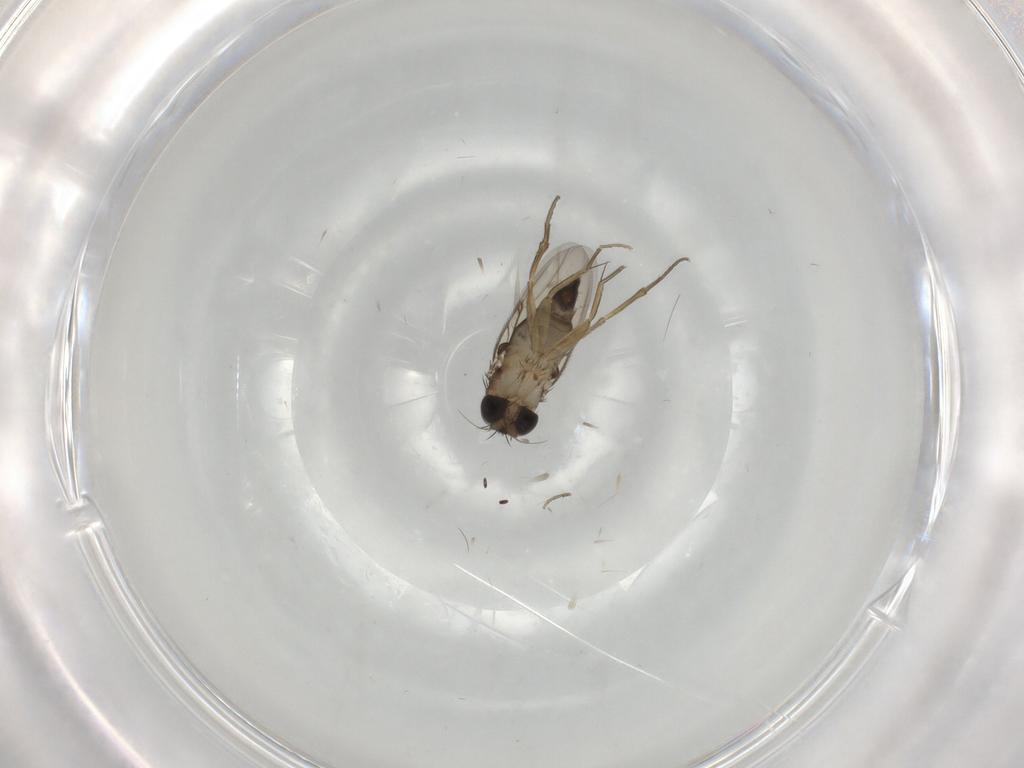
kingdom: Animalia
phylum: Arthropoda
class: Insecta
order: Diptera
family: Phoridae
